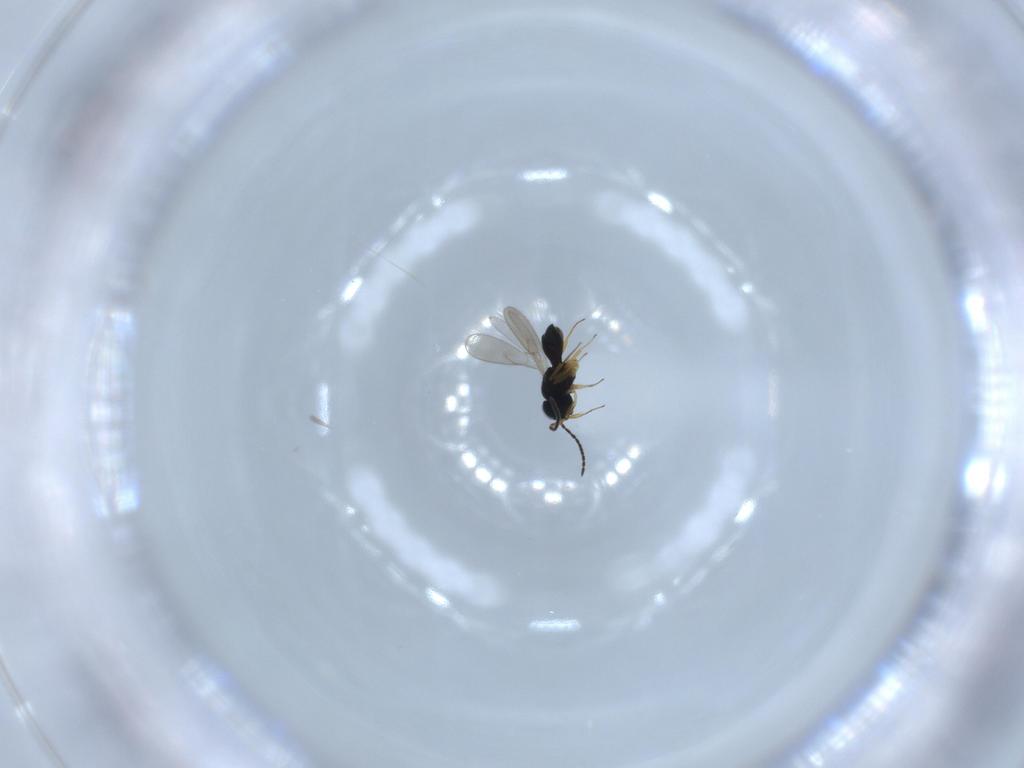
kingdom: Animalia
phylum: Arthropoda
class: Insecta
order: Hymenoptera
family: Scelionidae
